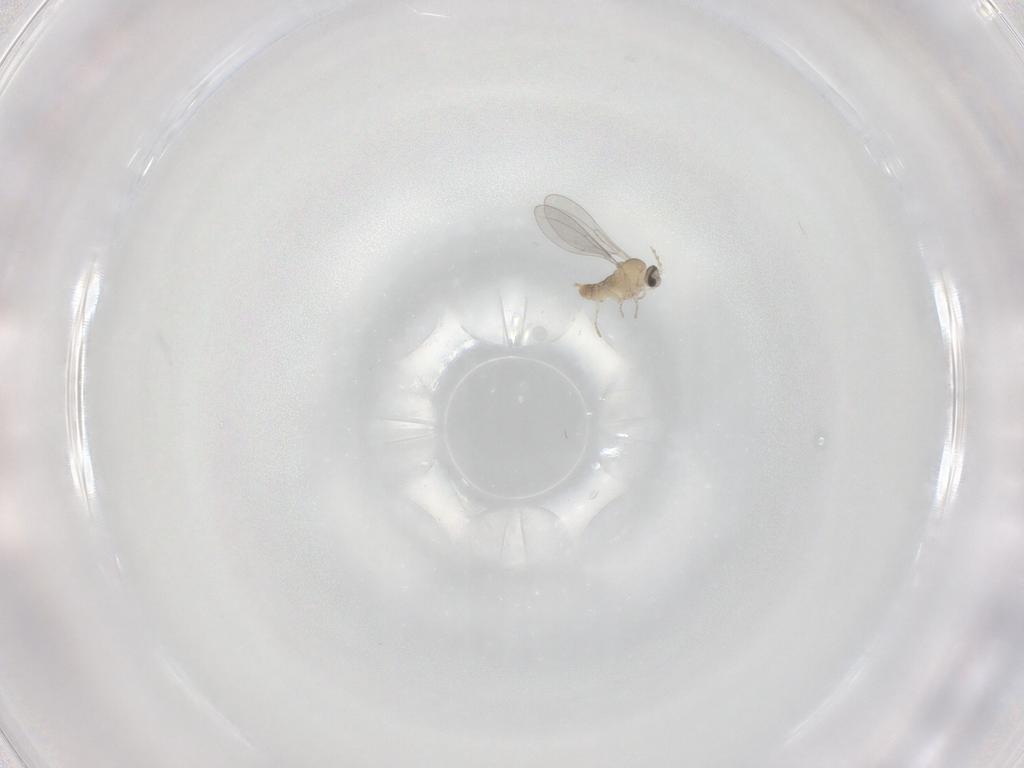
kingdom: Animalia
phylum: Arthropoda
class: Insecta
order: Diptera
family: Cecidomyiidae
